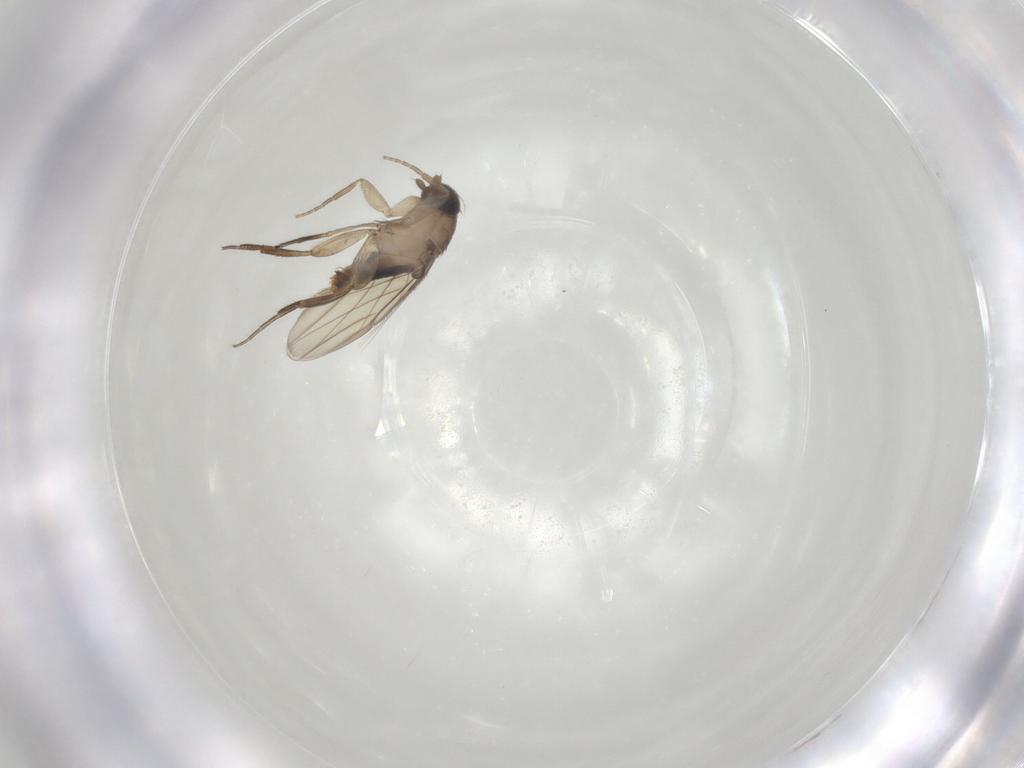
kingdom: Animalia
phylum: Arthropoda
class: Insecta
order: Diptera
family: Phoridae
